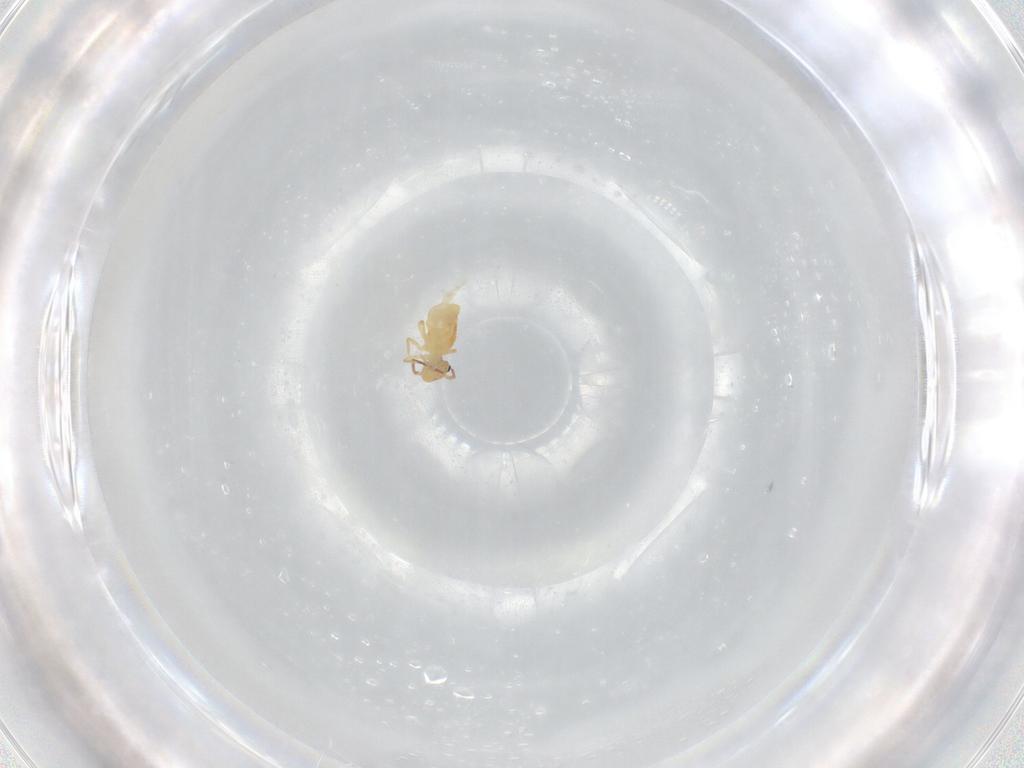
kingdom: Animalia
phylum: Arthropoda
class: Collembola
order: Symphypleona
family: Bourletiellidae
